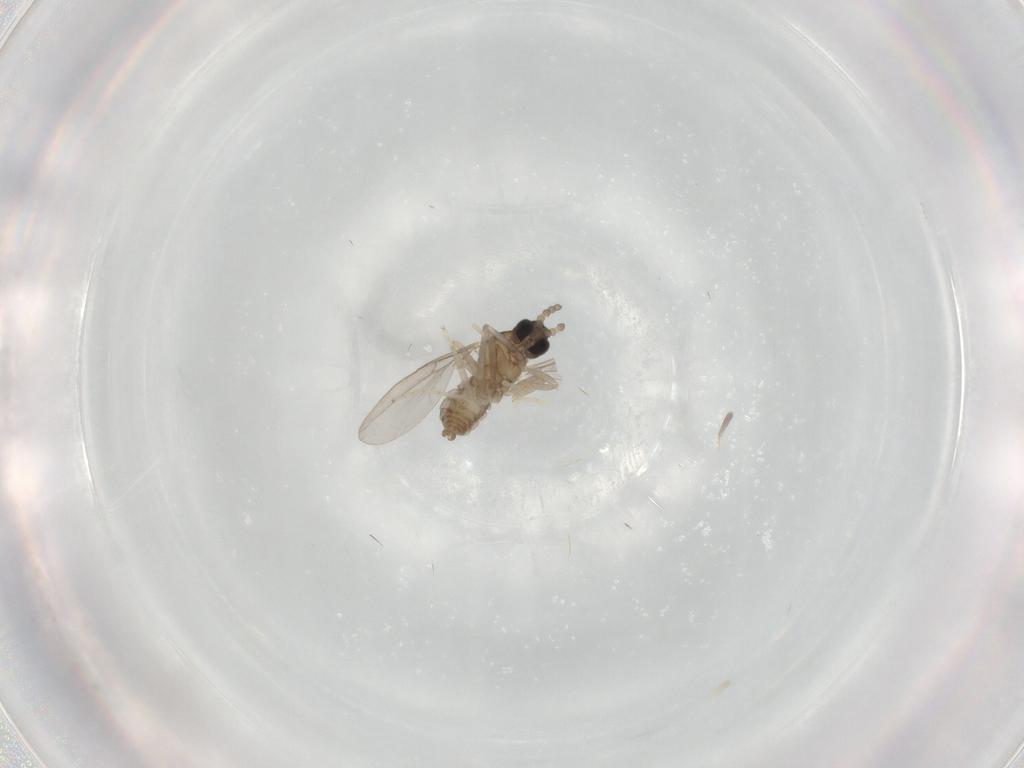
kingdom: Animalia
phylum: Arthropoda
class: Insecta
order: Diptera
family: Cecidomyiidae
